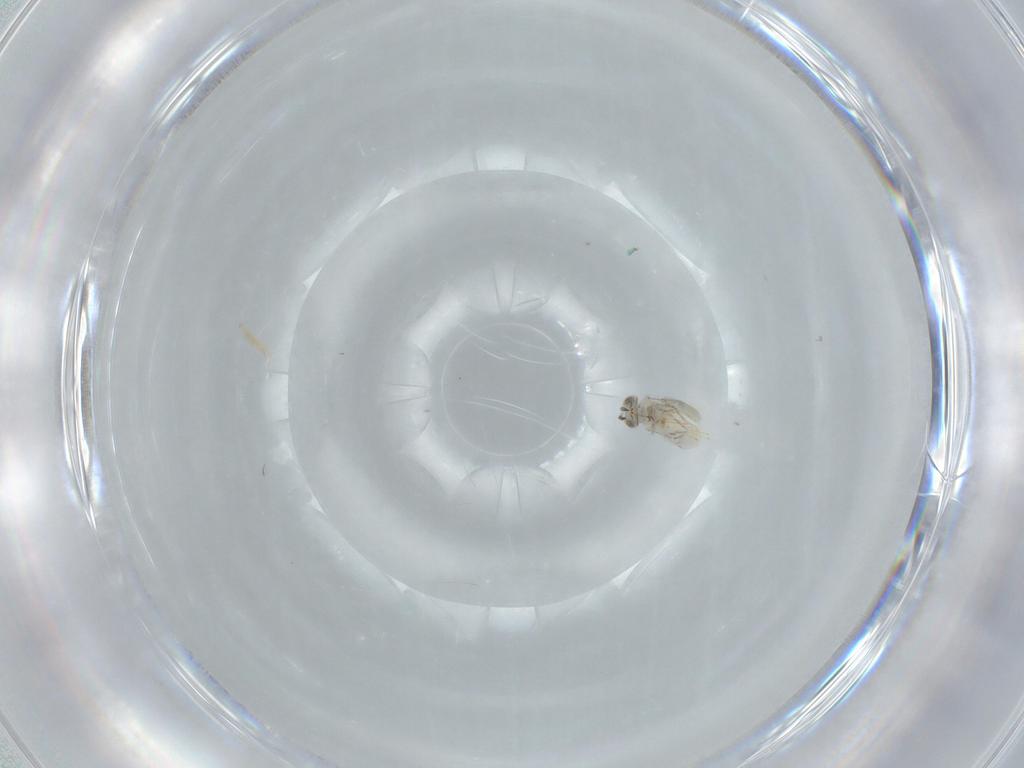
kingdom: Animalia
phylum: Arthropoda
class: Insecta
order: Hymenoptera
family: Aphelinidae
